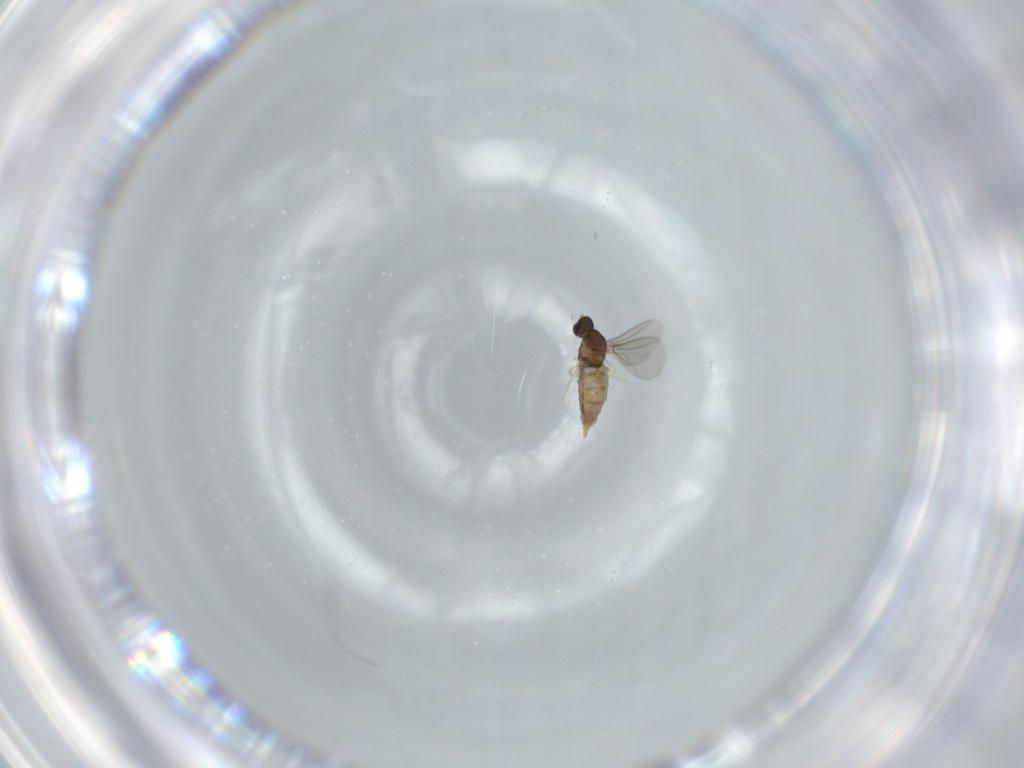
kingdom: Animalia
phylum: Arthropoda
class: Insecta
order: Diptera
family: Cecidomyiidae
